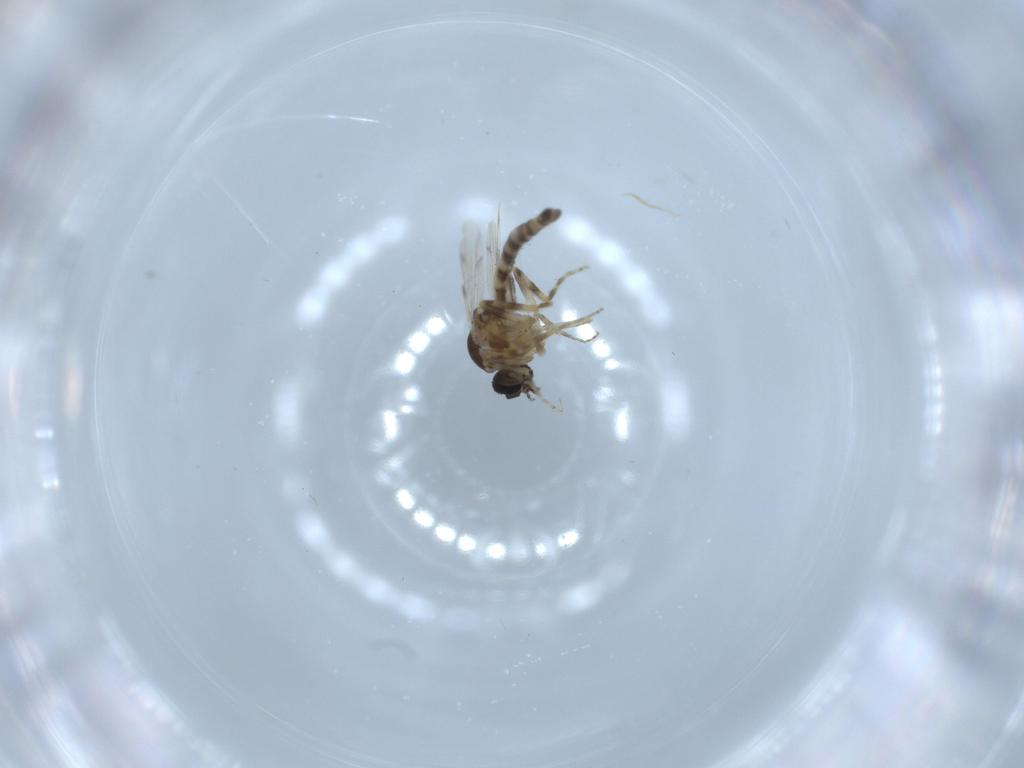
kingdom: Animalia
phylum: Arthropoda
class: Insecta
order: Diptera
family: Ceratopogonidae
